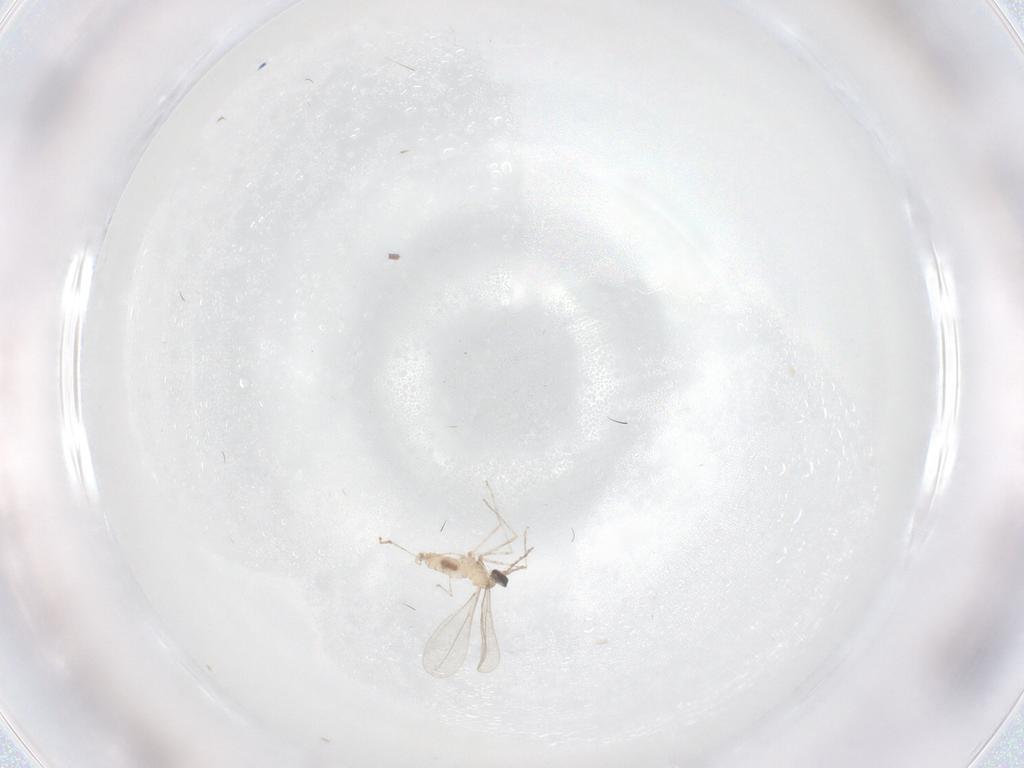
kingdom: Animalia
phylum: Arthropoda
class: Insecta
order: Diptera
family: Cecidomyiidae
